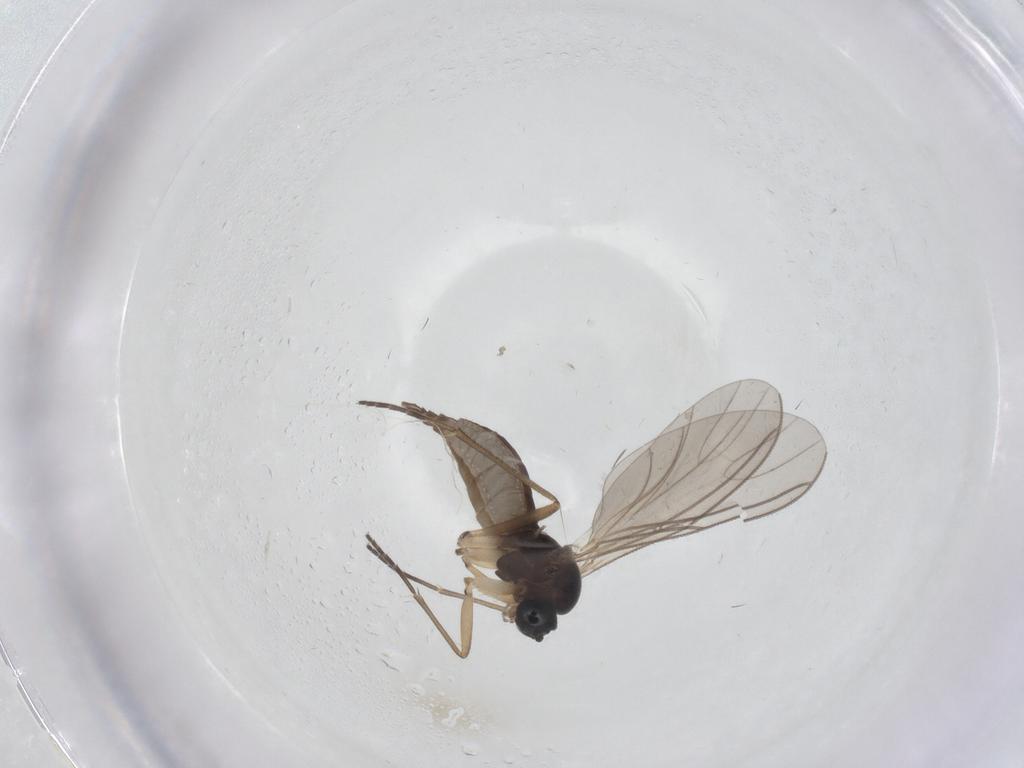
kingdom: Animalia
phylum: Arthropoda
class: Insecta
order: Diptera
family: Sciaridae
